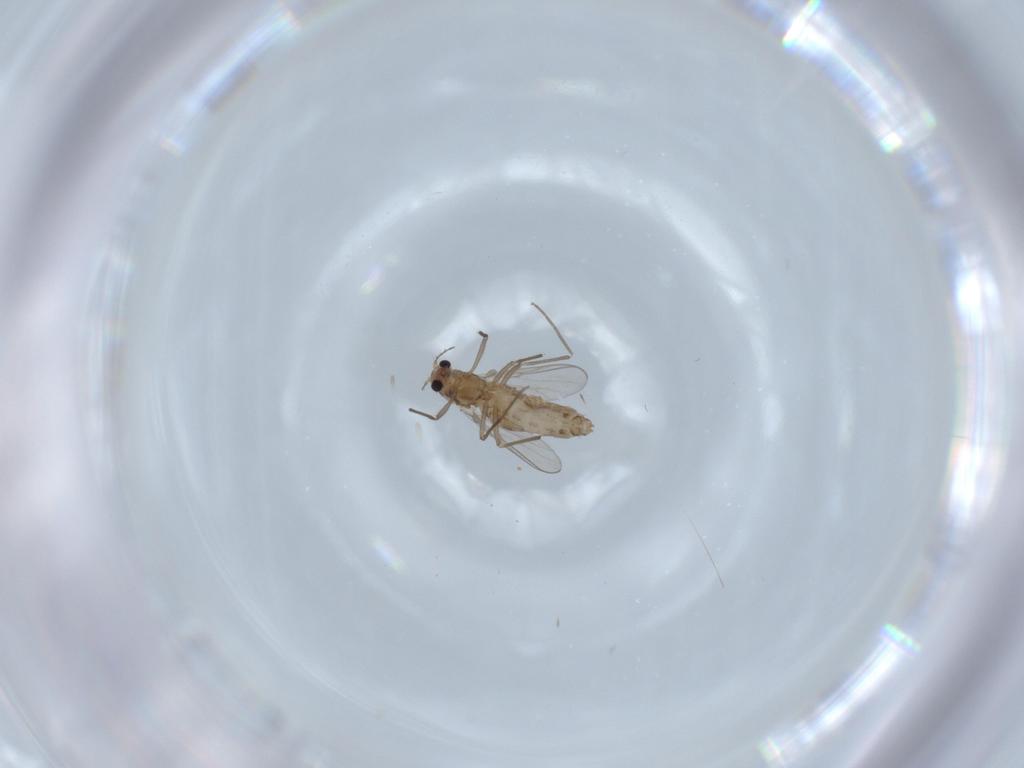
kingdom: Animalia
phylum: Arthropoda
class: Insecta
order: Diptera
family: Chironomidae
